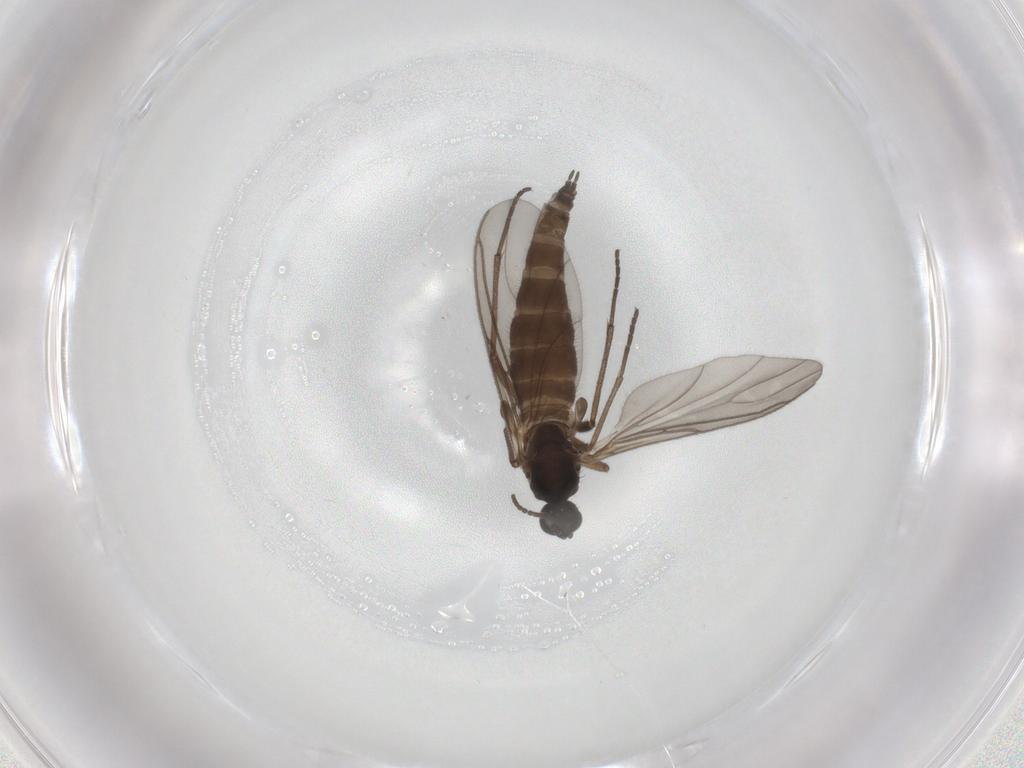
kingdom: Animalia
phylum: Arthropoda
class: Insecta
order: Diptera
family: Sciaridae
